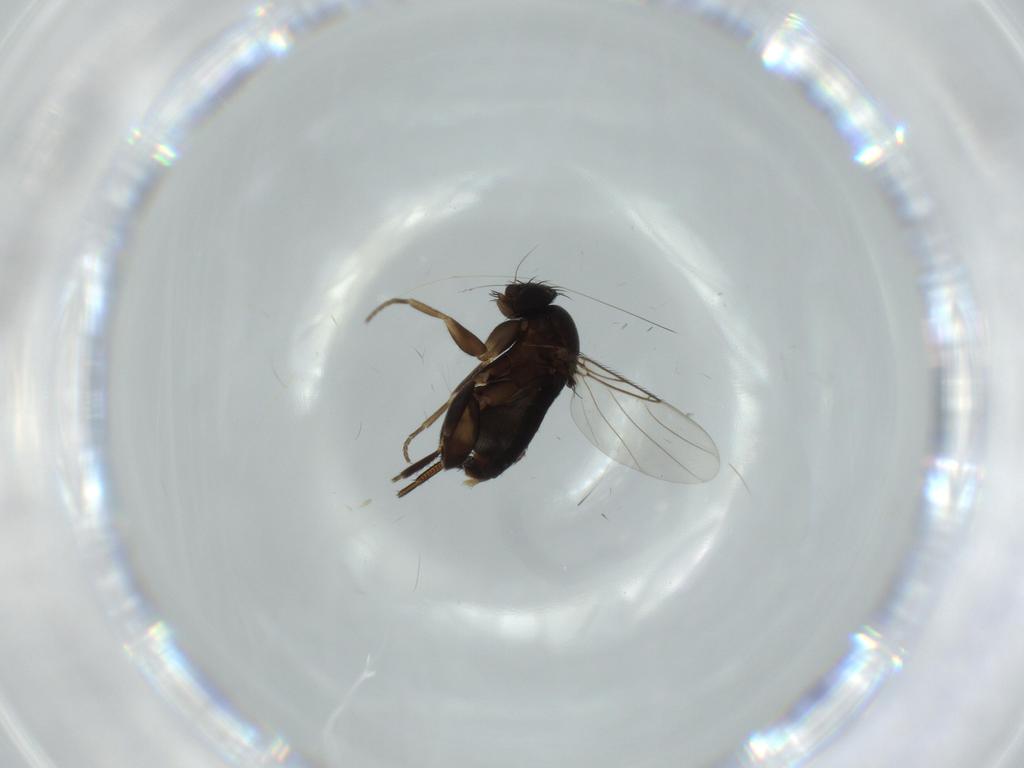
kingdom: Animalia
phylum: Arthropoda
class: Insecta
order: Diptera
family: Phoridae
